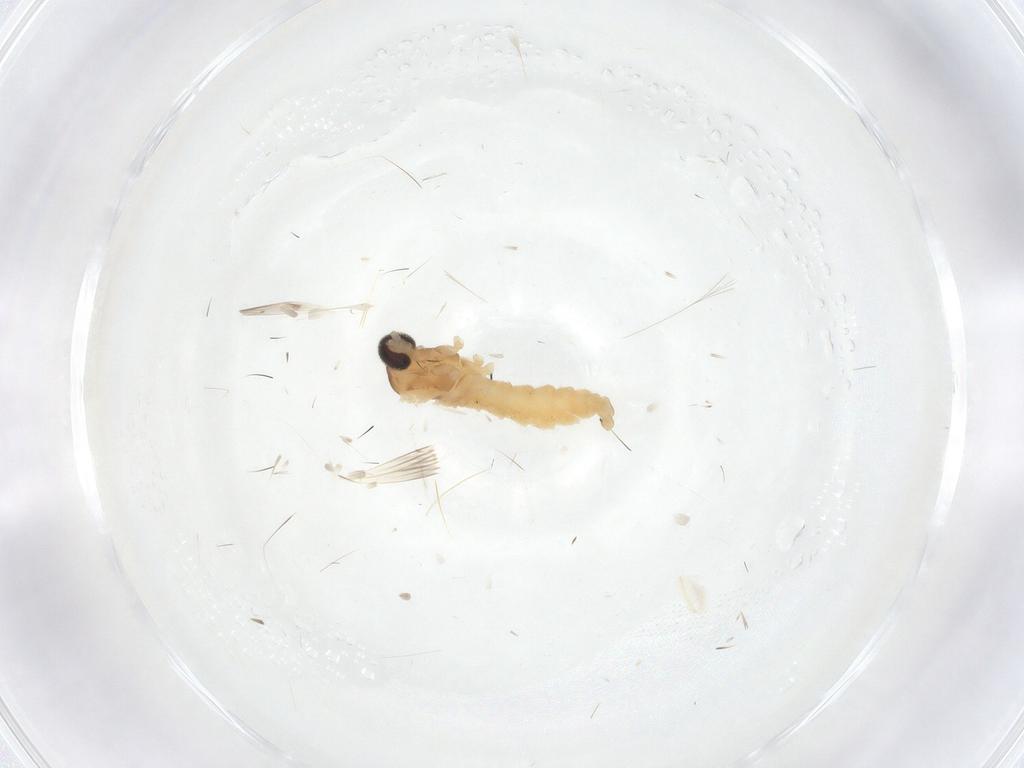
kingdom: Animalia
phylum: Arthropoda
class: Insecta
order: Diptera
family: Cecidomyiidae
